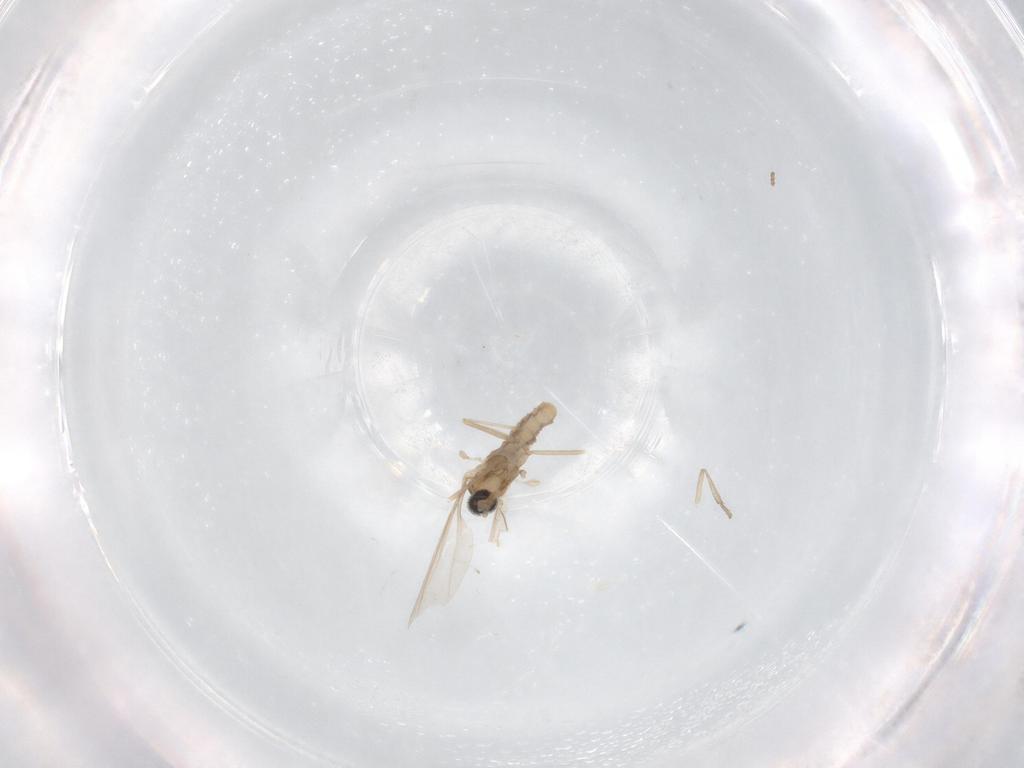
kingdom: Animalia
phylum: Arthropoda
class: Insecta
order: Diptera
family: Cecidomyiidae
